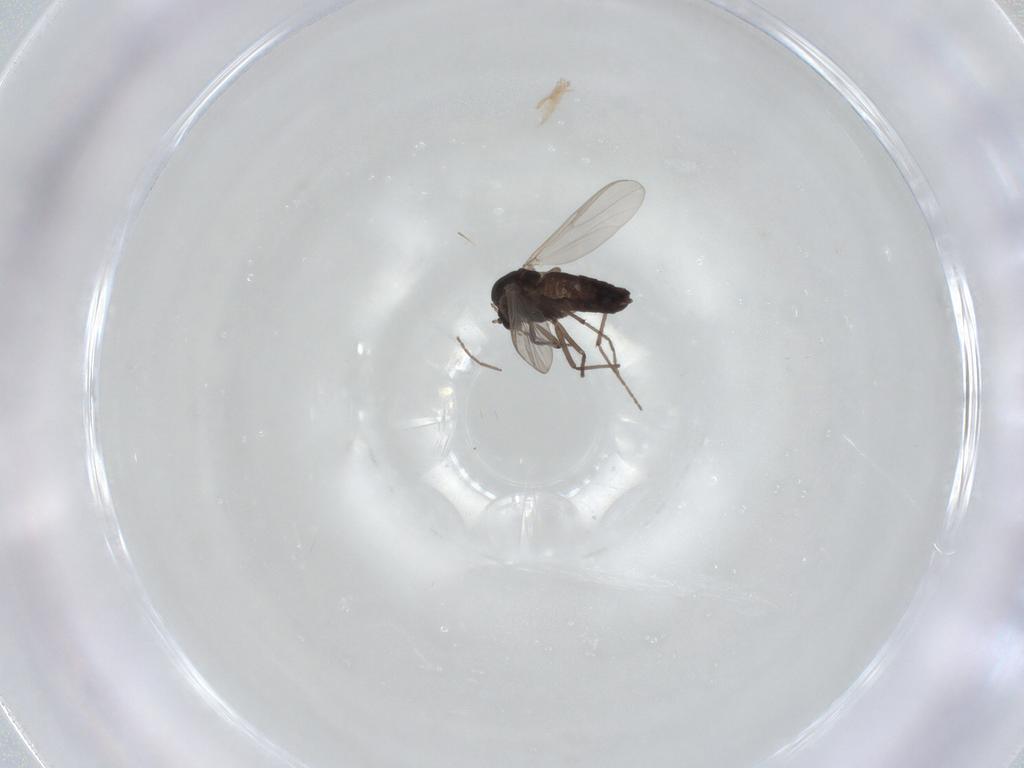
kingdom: Animalia
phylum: Arthropoda
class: Insecta
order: Diptera
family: Chironomidae
